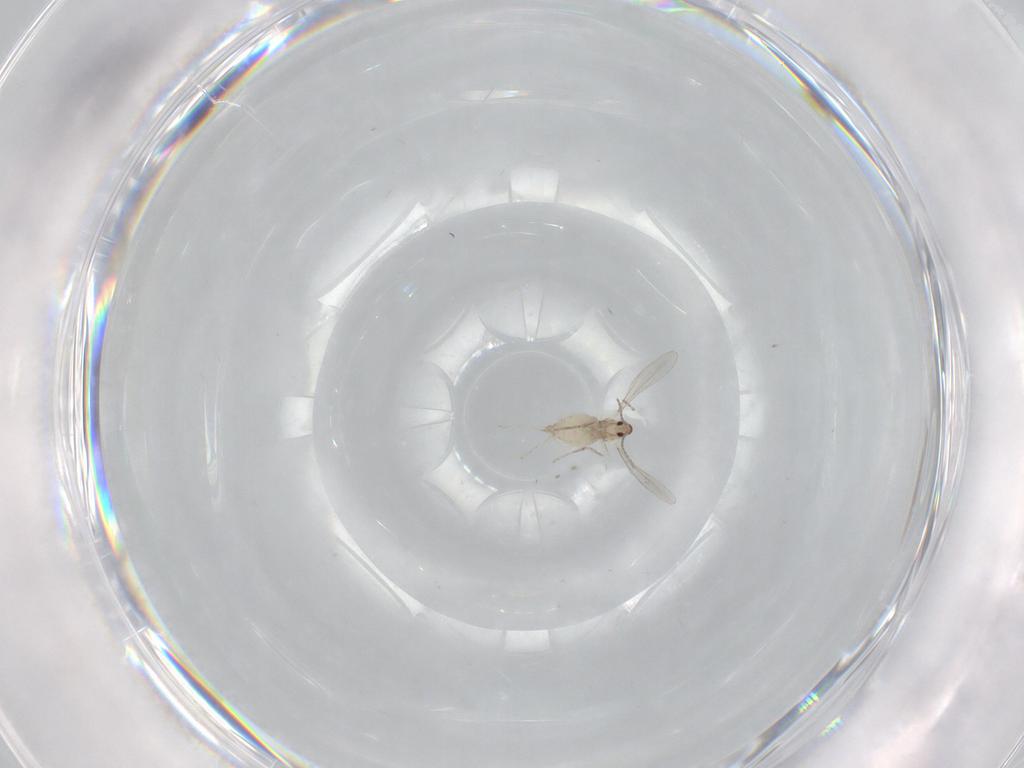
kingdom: Animalia
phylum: Arthropoda
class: Insecta
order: Diptera
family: Cecidomyiidae
